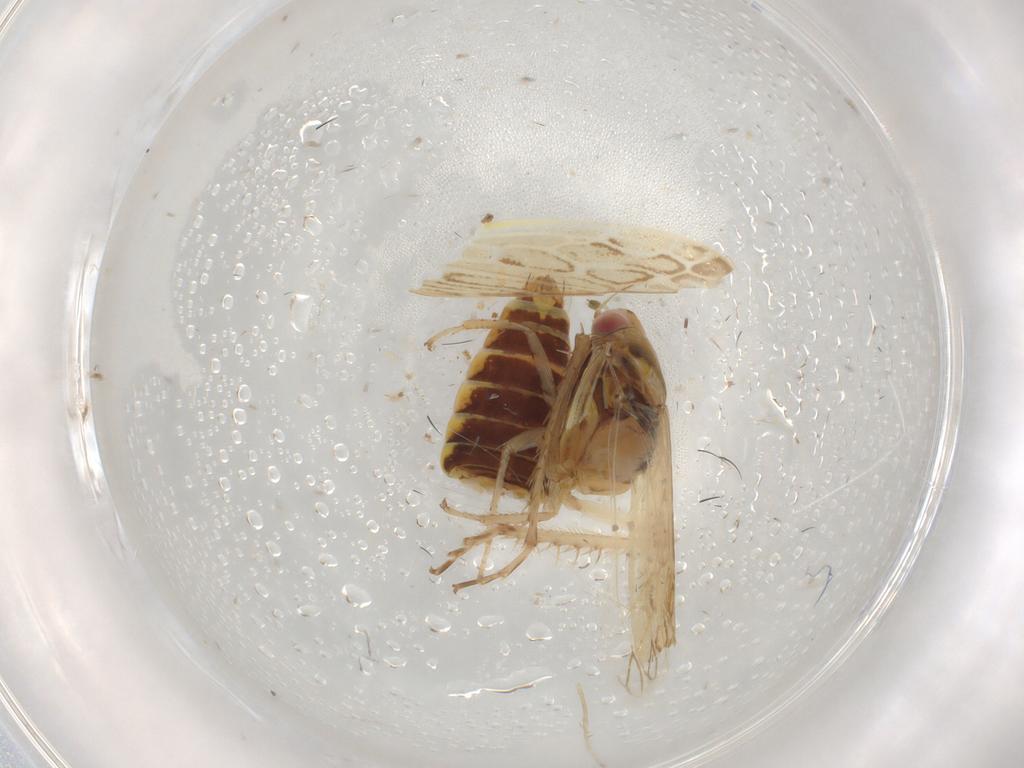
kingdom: Animalia
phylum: Arthropoda
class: Insecta
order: Hemiptera
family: Cicadellidae
